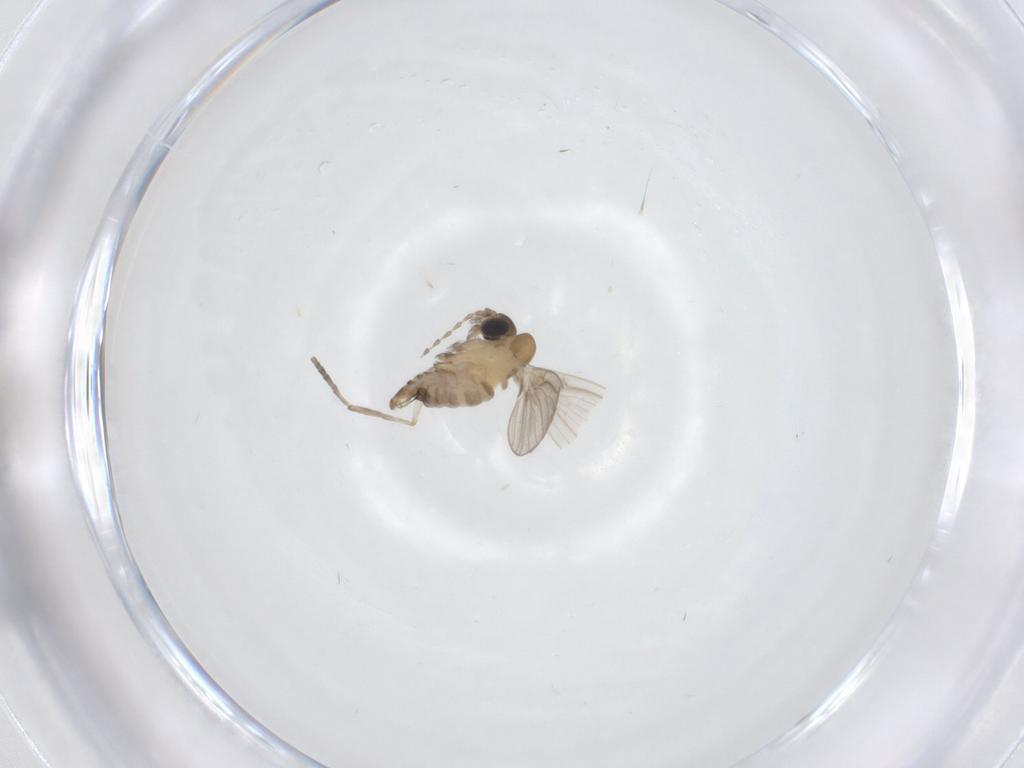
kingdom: Animalia
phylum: Arthropoda
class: Insecta
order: Diptera
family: Psychodidae
